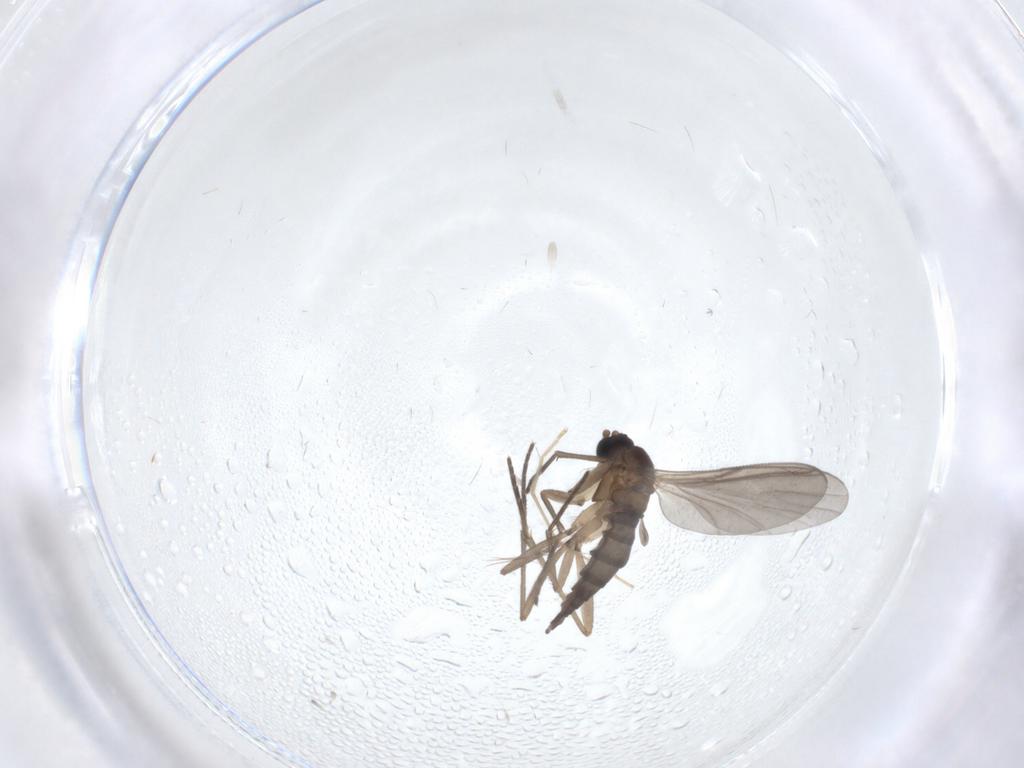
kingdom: Animalia
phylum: Arthropoda
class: Insecta
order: Diptera
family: Chironomidae
